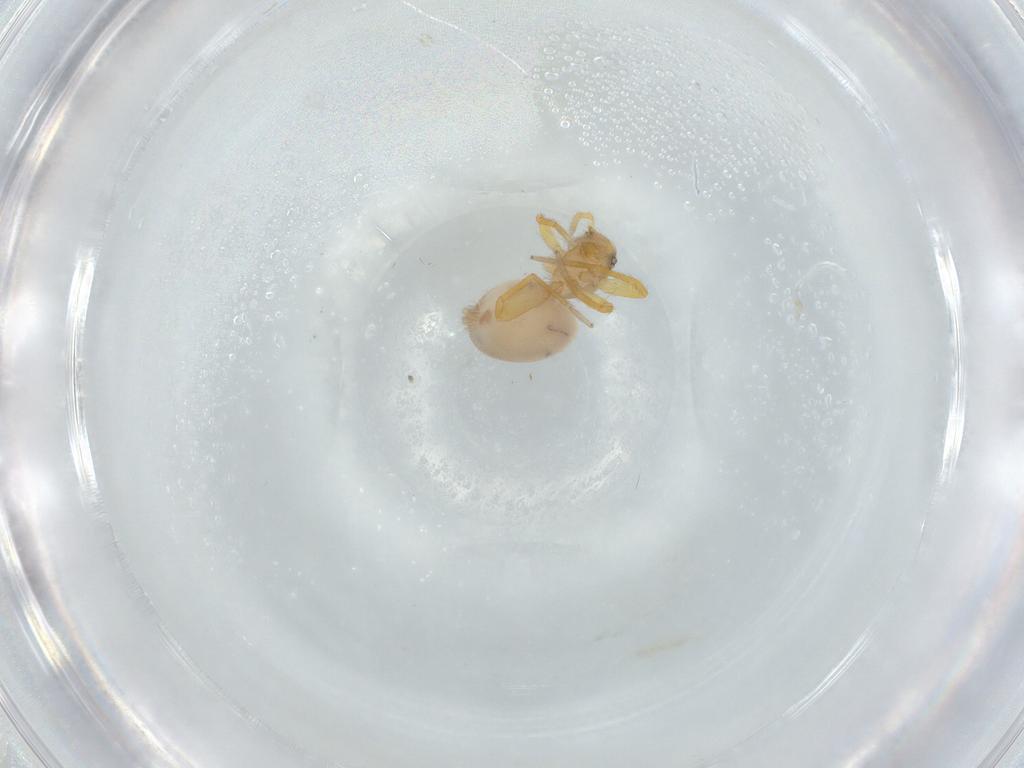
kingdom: Animalia
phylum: Arthropoda
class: Arachnida
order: Araneae
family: Oonopidae
